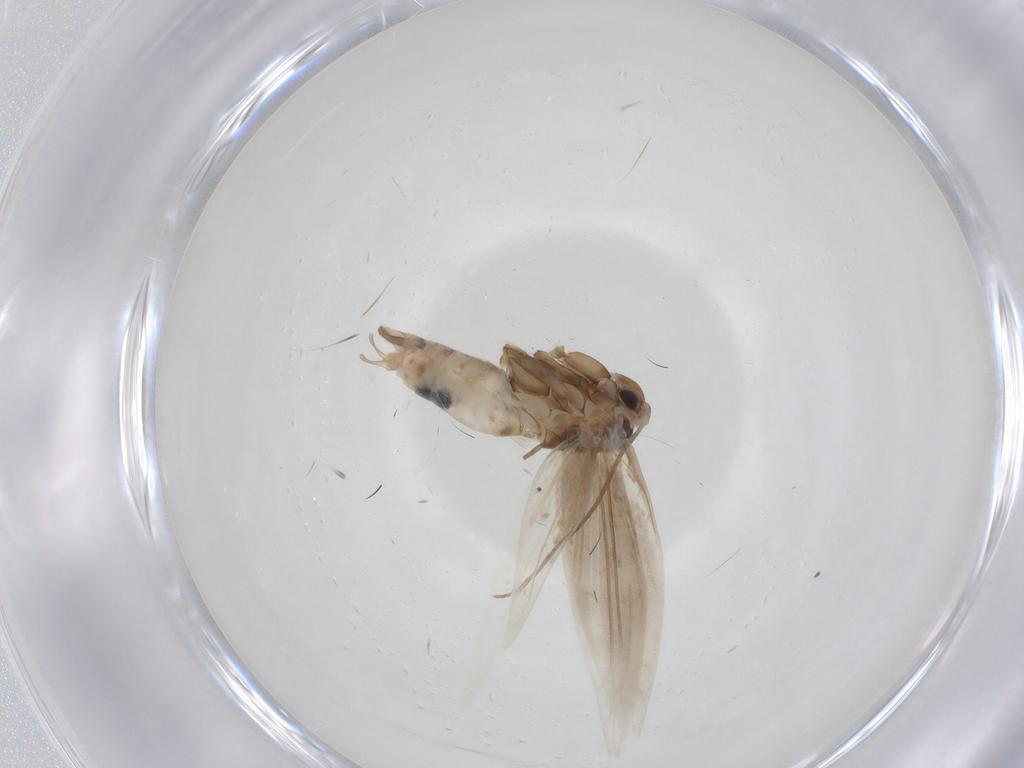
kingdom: Animalia
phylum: Arthropoda
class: Insecta
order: Lepidoptera
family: Bucculatricidae
